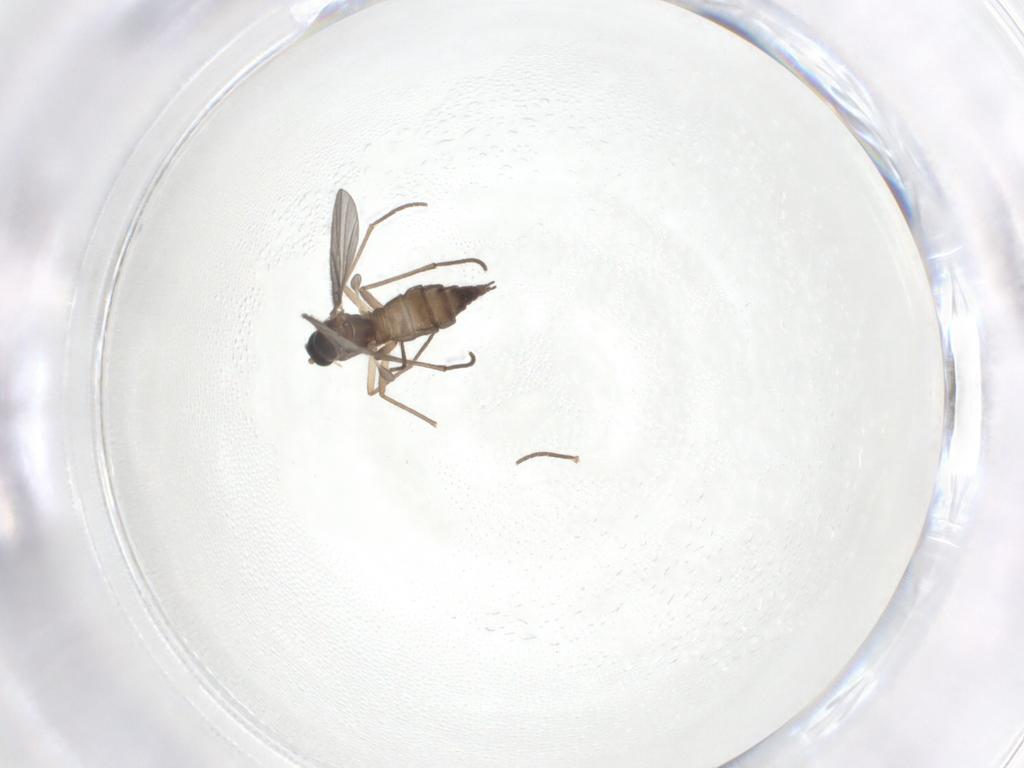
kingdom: Animalia
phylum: Arthropoda
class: Insecta
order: Diptera
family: Sciaridae
